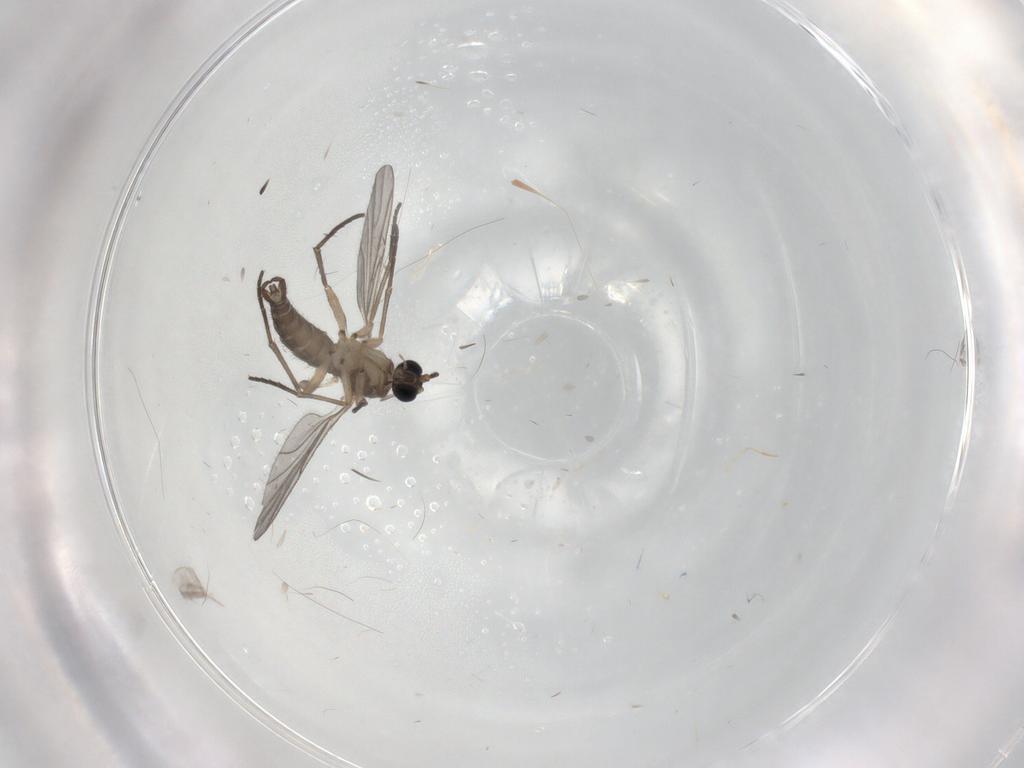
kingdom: Animalia
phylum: Arthropoda
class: Insecta
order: Diptera
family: Sciaridae
